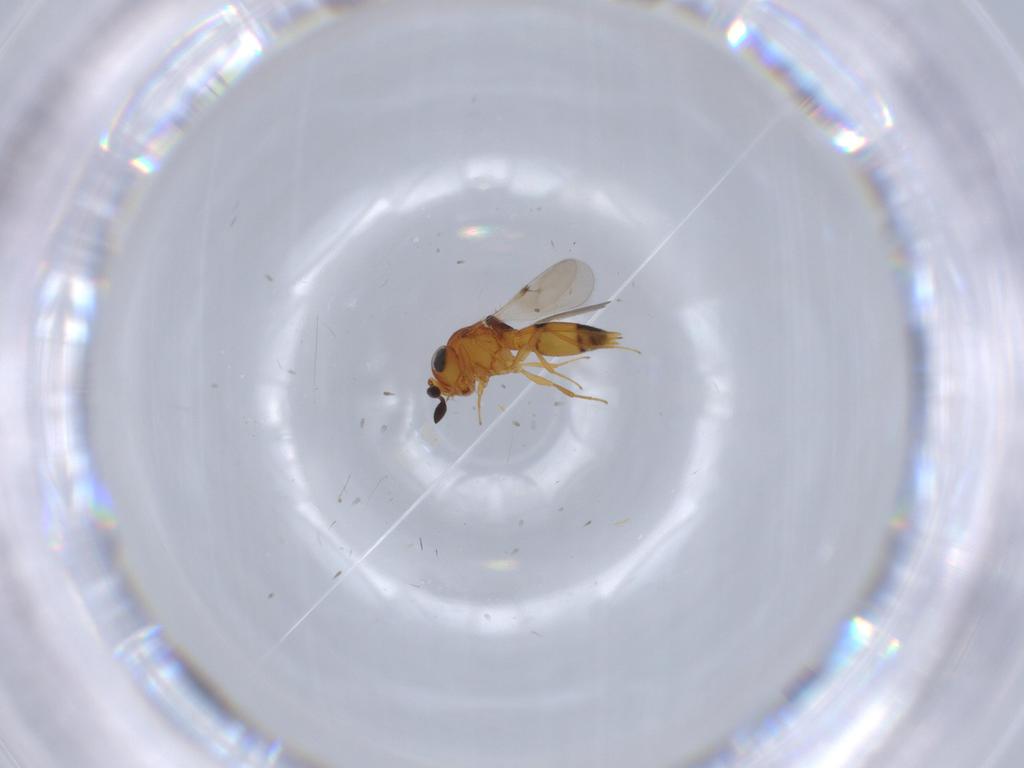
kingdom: Animalia
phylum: Arthropoda
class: Insecta
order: Hymenoptera
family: Scelionidae
